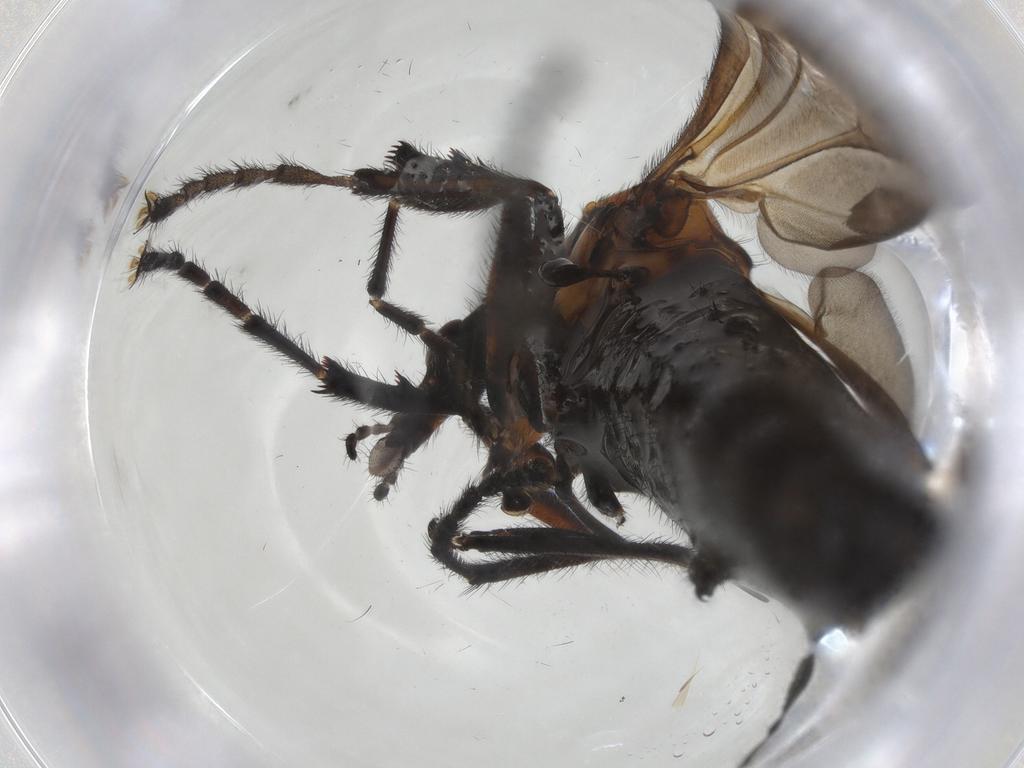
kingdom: Animalia
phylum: Arthropoda
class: Insecta
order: Diptera
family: Bibionidae
